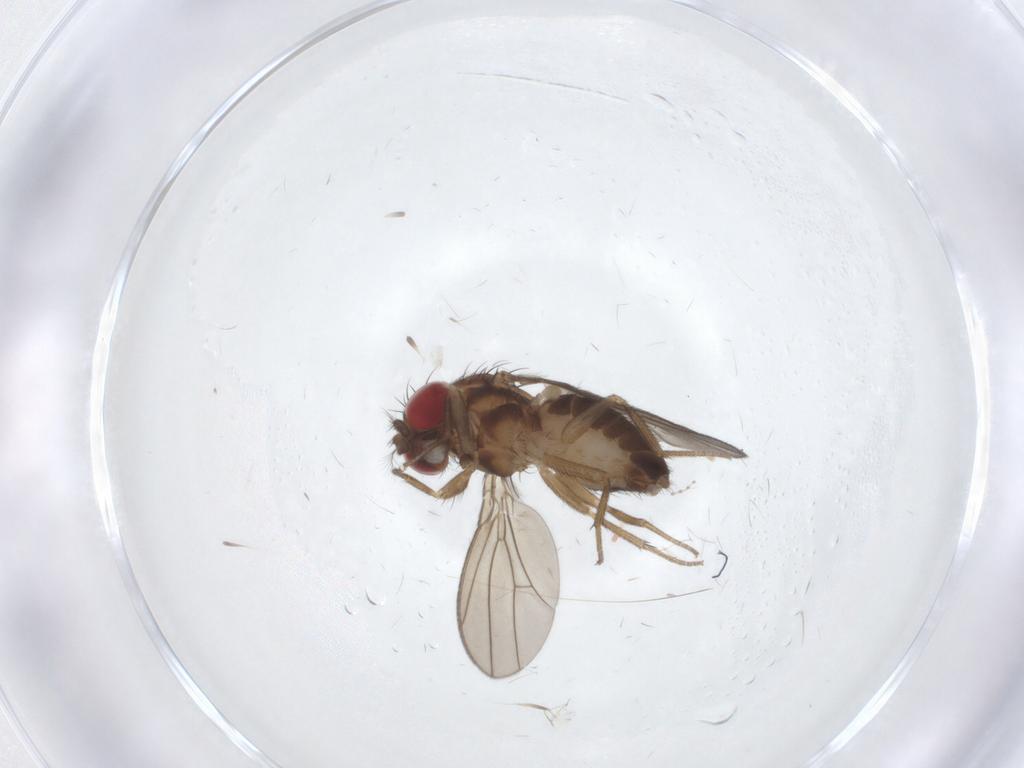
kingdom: Animalia
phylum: Arthropoda
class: Insecta
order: Diptera
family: Drosophilidae
